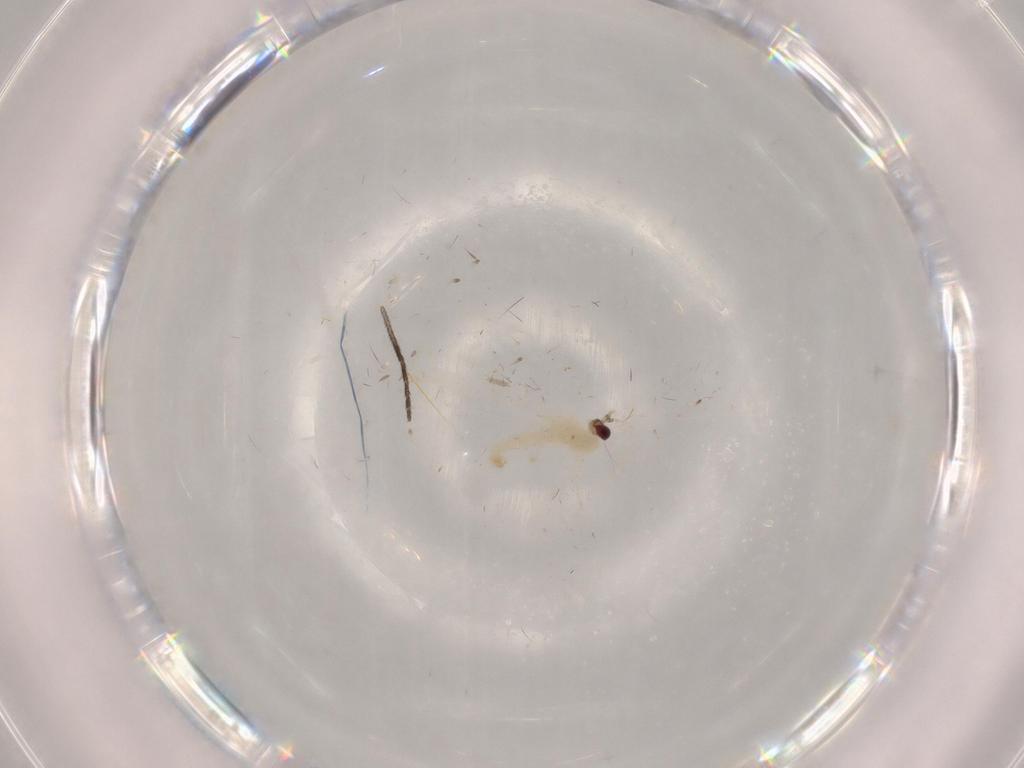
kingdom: Animalia
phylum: Arthropoda
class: Insecta
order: Diptera
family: Cecidomyiidae
